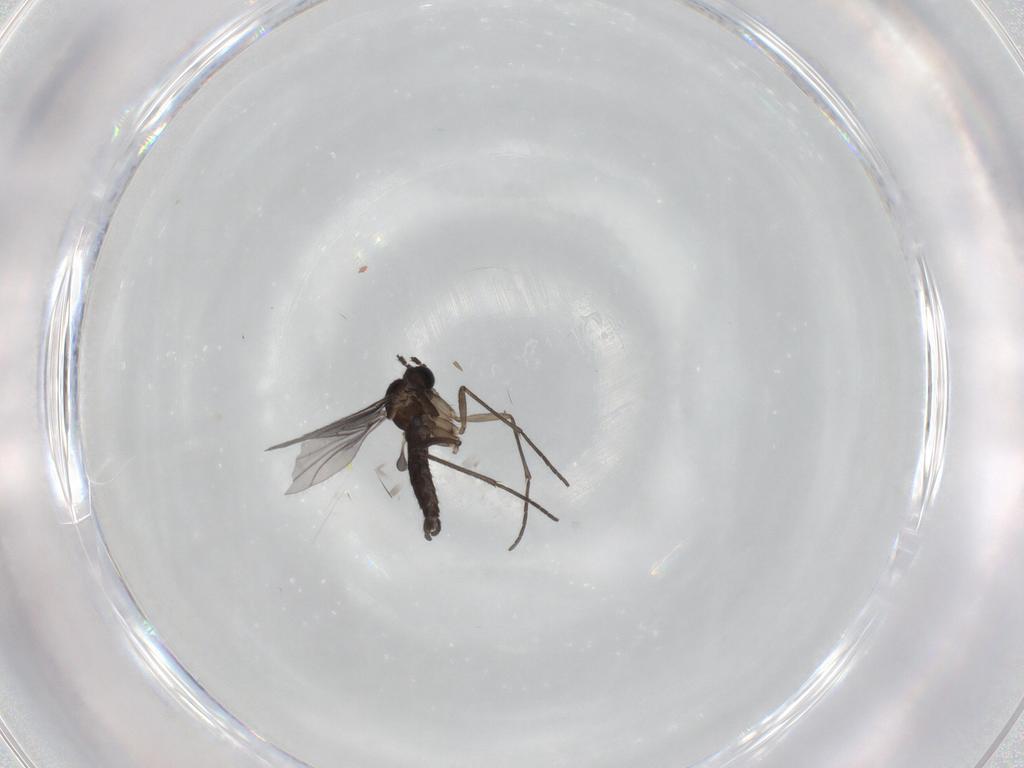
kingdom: Animalia
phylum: Arthropoda
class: Insecta
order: Diptera
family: Sciaridae
